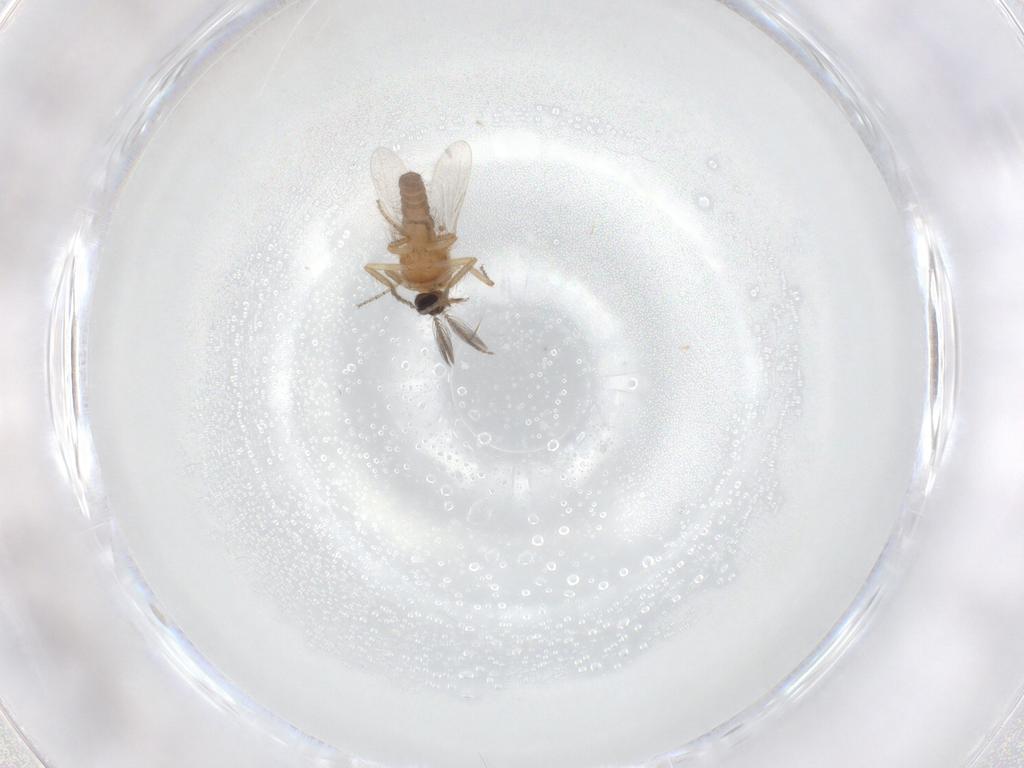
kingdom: Animalia
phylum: Arthropoda
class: Insecta
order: Diptera
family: Ceratopogonidae
